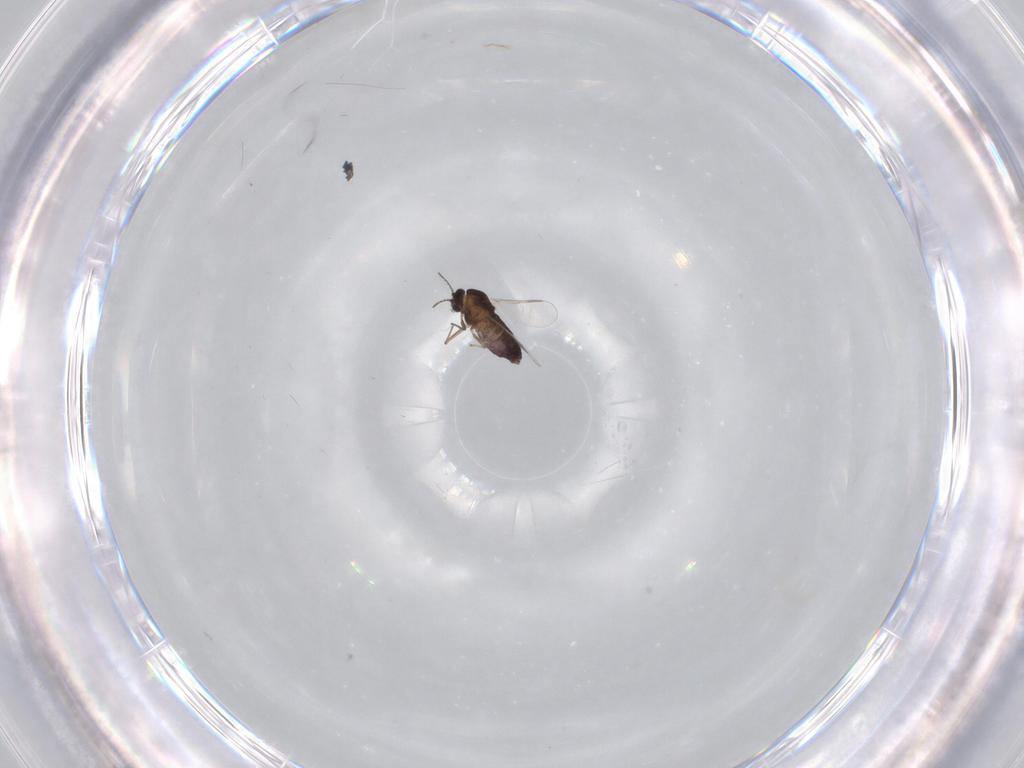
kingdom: Animalia
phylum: Arthropoda
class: Insecta
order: Diptera
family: Chironomidae
